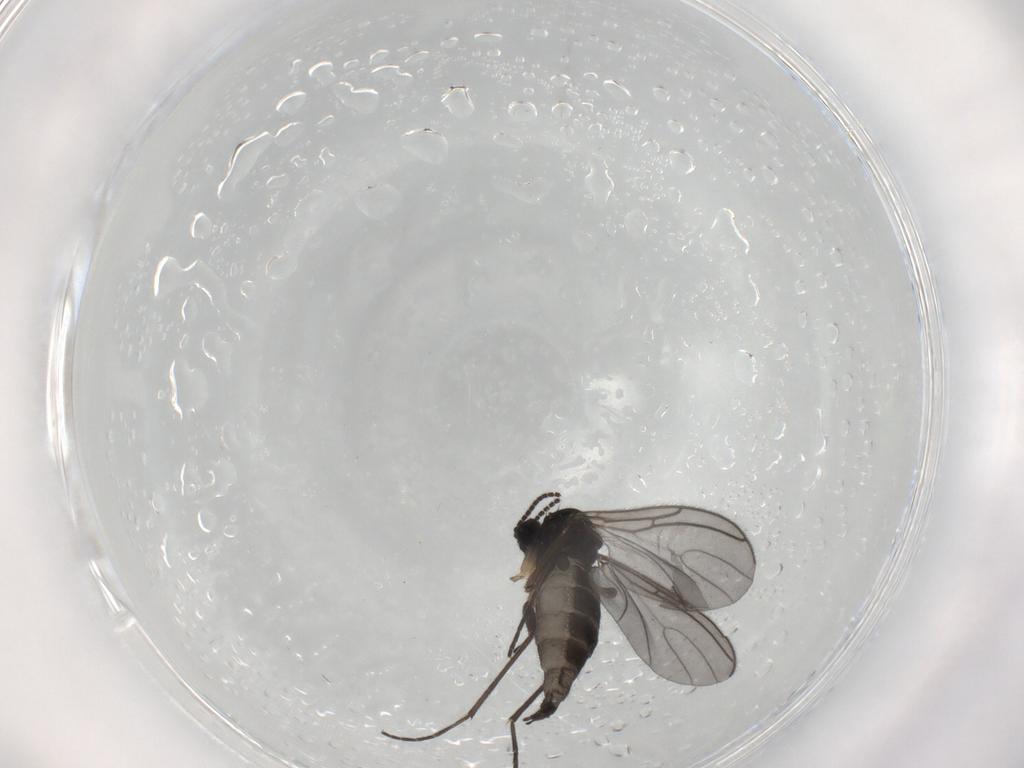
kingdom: Animalia
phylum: Arthropoda
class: Insecta
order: Diptera
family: Sciaridae
